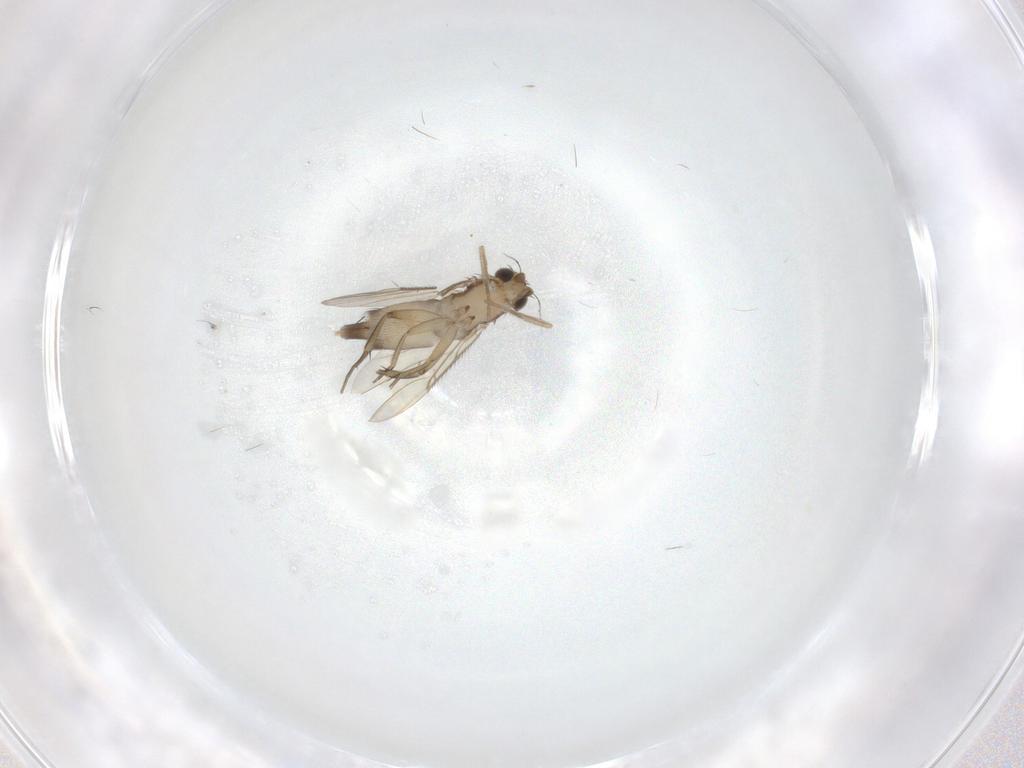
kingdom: Animalia
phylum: Arthropoda
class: Insecta
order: Diptera
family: Phoridae
